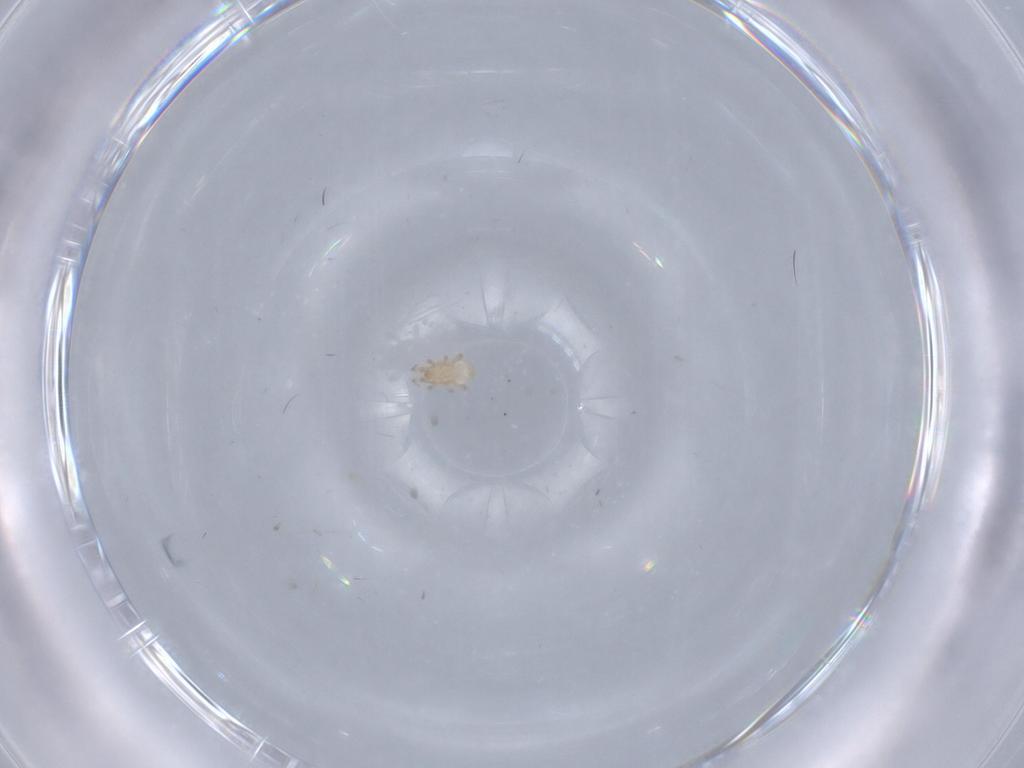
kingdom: Animalia
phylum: Arthropoda
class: Arachnida
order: Mesostigmata
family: Ascidae
